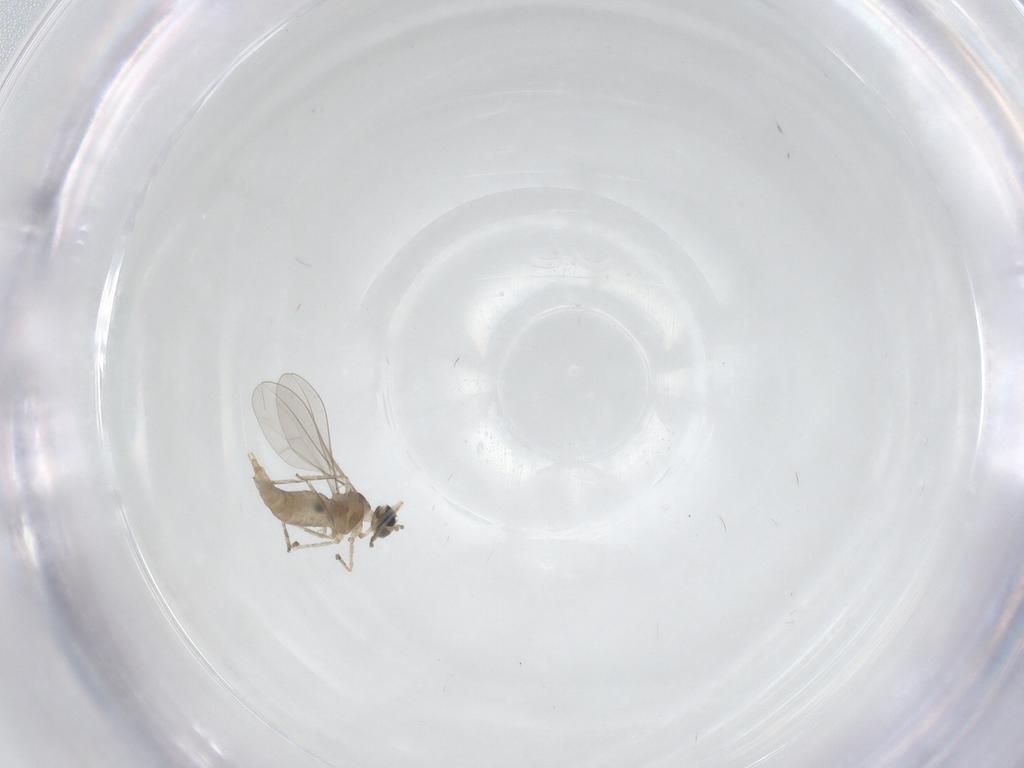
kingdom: Animalia
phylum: Arthropoda
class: Insecta
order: Diptera
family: Cecidomyiidae
